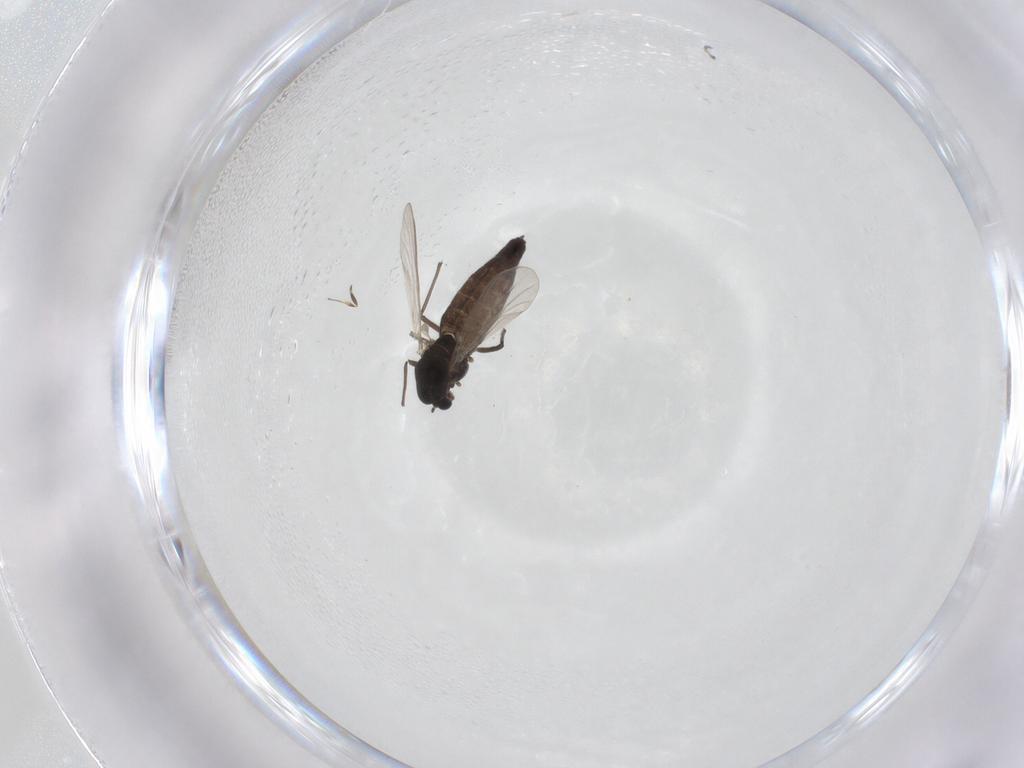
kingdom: Animalia
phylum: Arthropoda
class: Insecta
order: Diptera
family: Chironomidae
